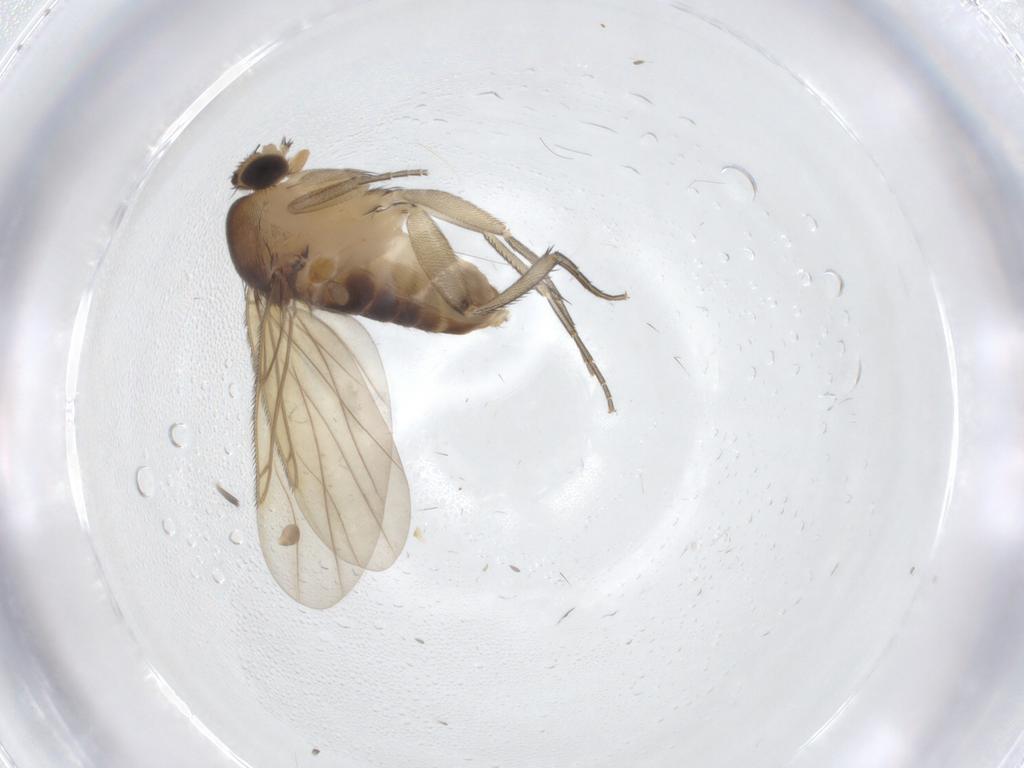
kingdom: Animalia
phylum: Arthropoda
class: Insecta
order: Diptera
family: Phoridae
